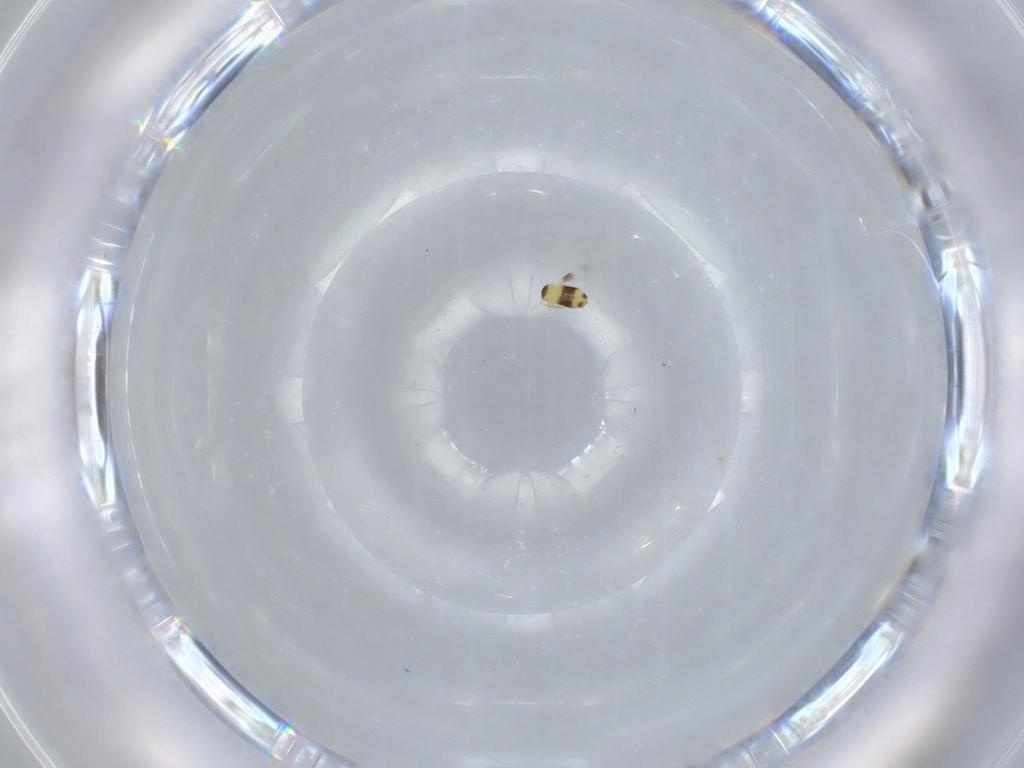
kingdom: Animalia
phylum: Arthropoda
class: Insecta
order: Hymenoptera
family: Signiphoridae
